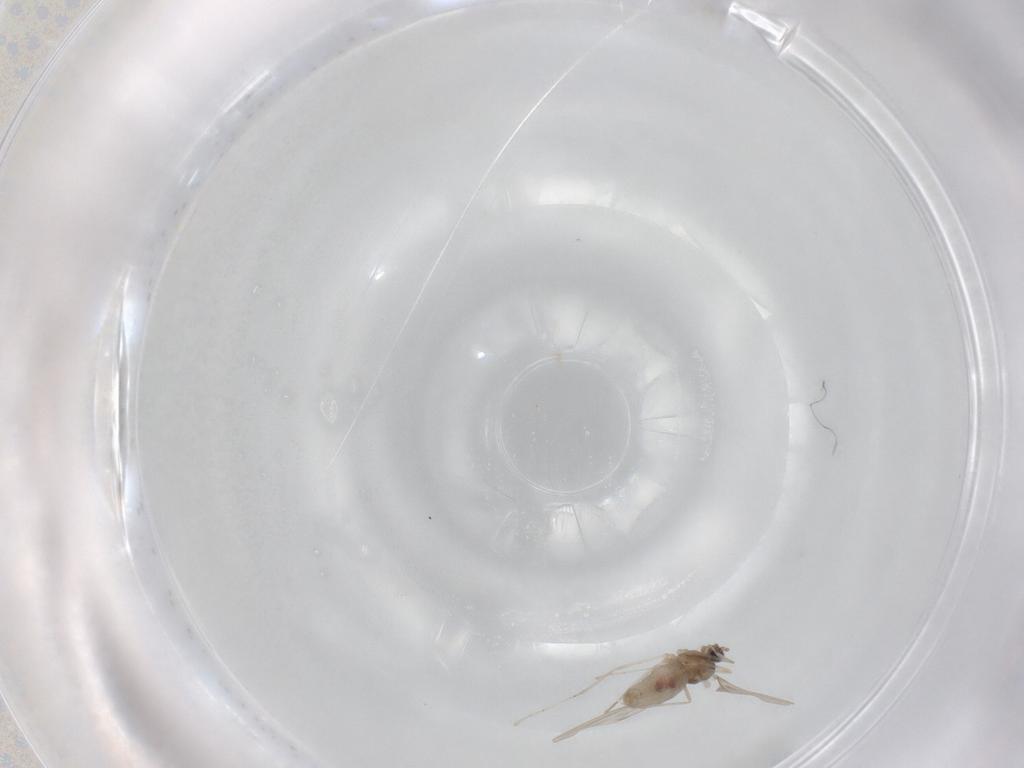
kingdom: Animalia
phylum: Arthropoda
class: Insecta
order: Diptera
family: Cecidomyiidae
